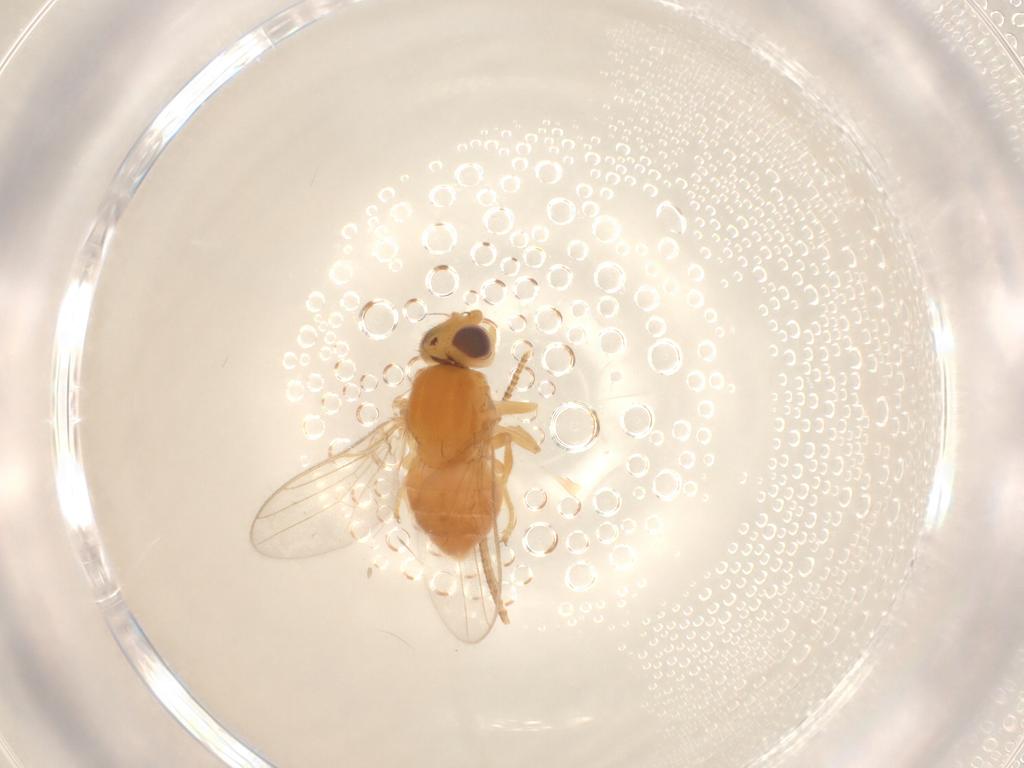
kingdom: Animalia
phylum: Arthropoda
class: Insecta
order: Diptera
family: Chloropidae
